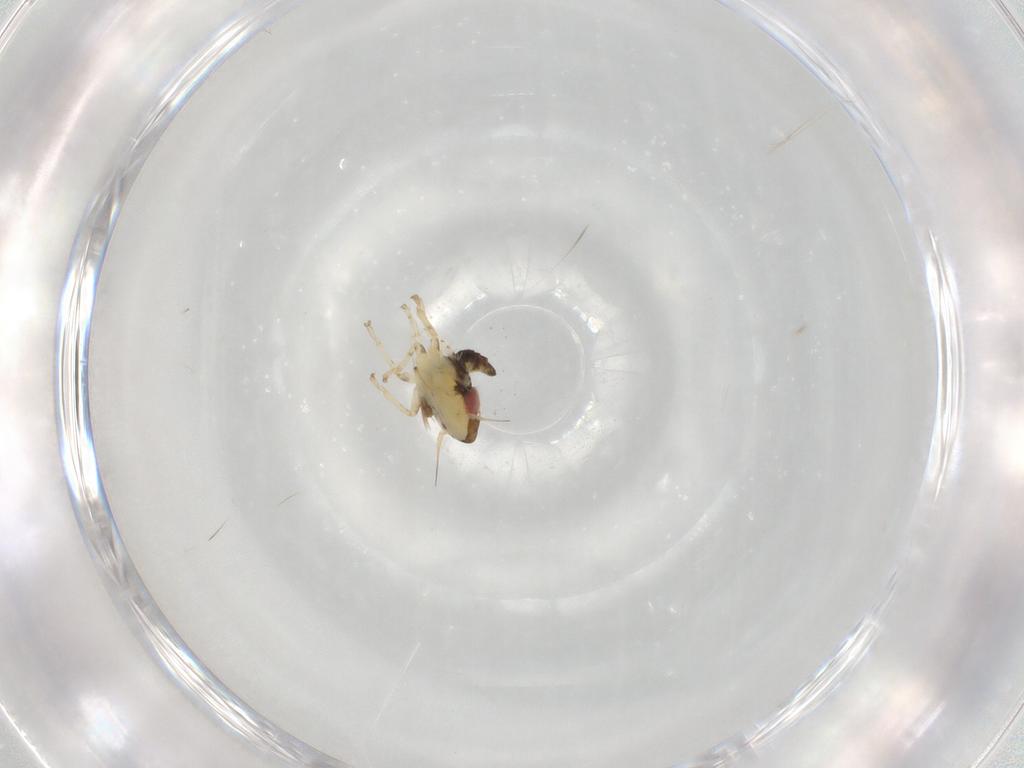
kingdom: Animalia
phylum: Arthropoda
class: Insecta
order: Hemiptera
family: Cicadellidae
